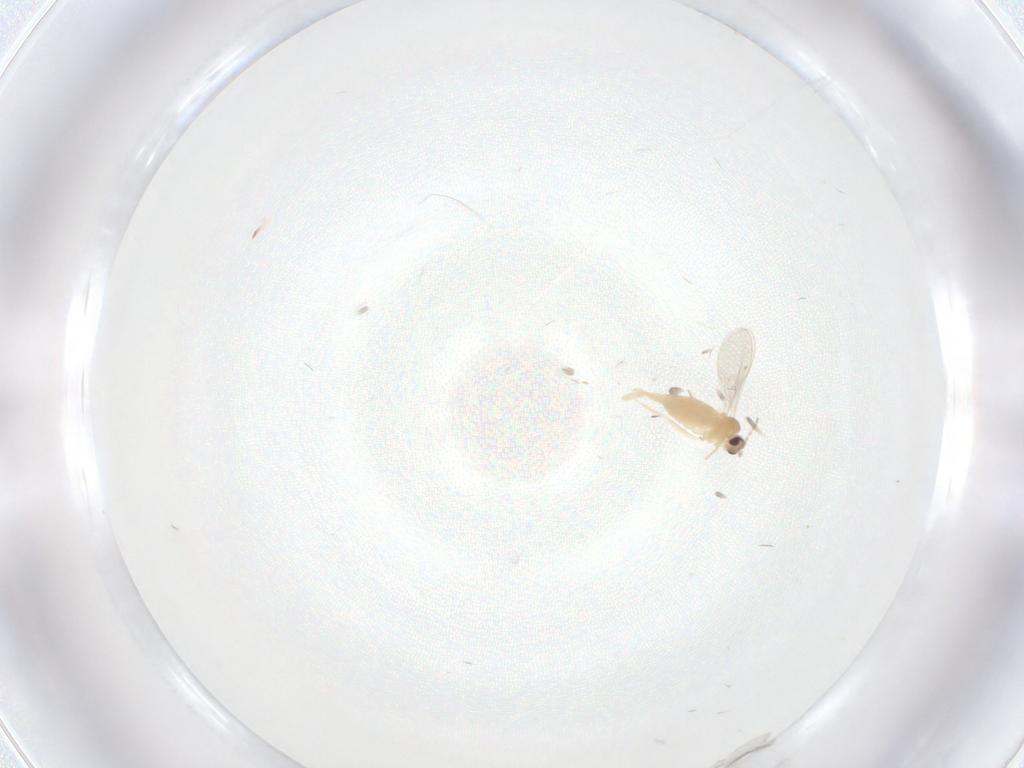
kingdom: Animalia
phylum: Arthropoda
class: Insecta
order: Diptera
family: Cecidomyiidae
